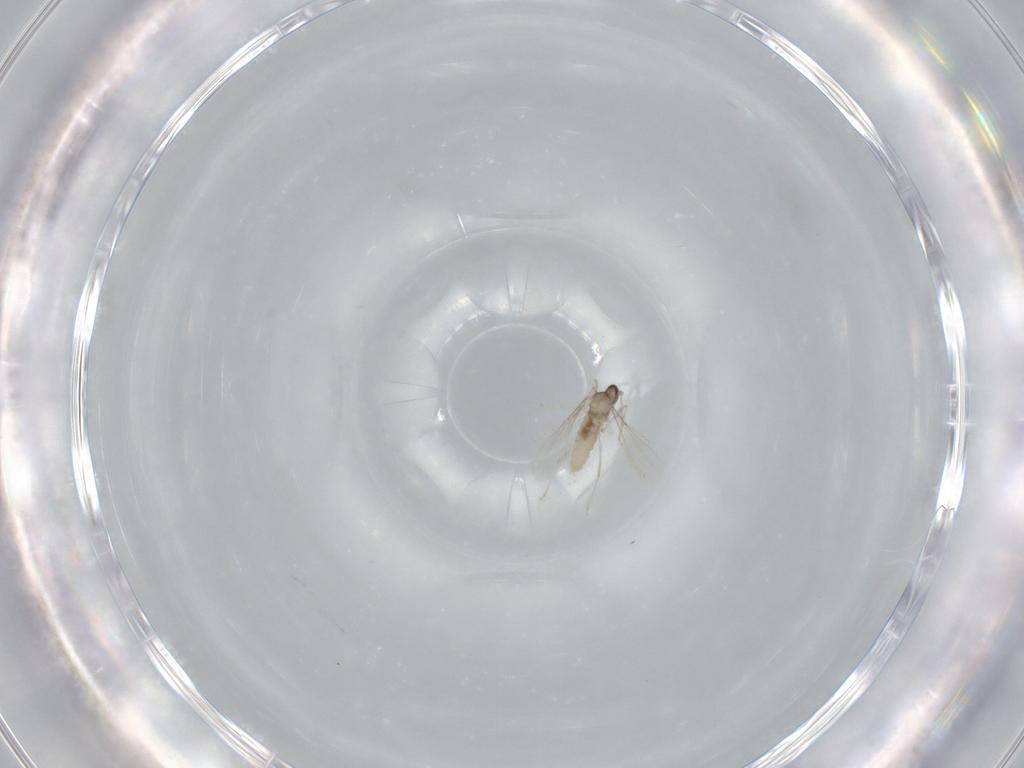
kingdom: Animalia
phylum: Arthropoda
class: Insecta
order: Diptera
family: Cecidomyiidae
